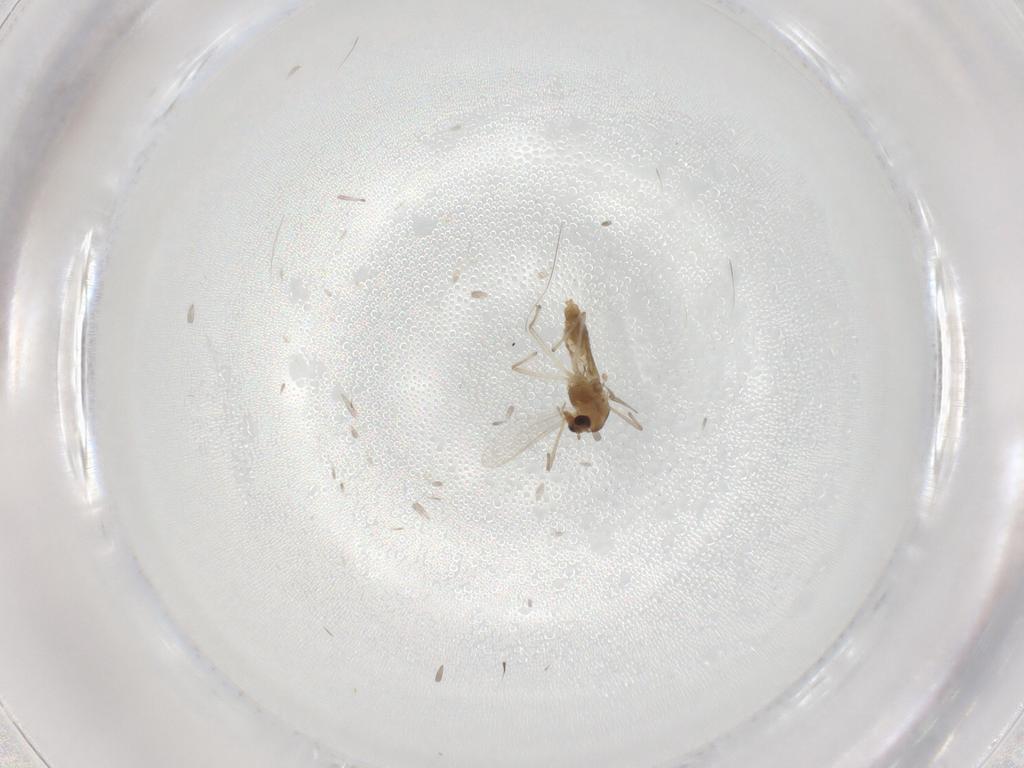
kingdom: Animalia
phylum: Arthropoda
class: Insecta
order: Diptera
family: Chironomidae
